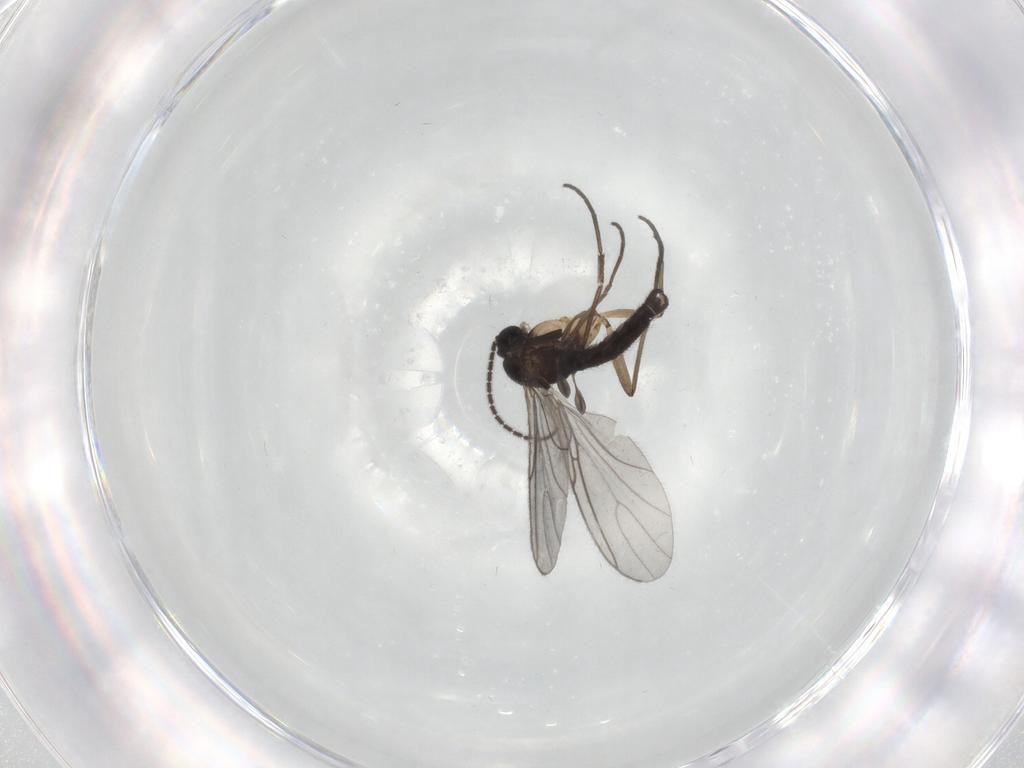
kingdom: Animalia
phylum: Arthropoda
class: Insecta
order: Diptera
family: Sciaridae
